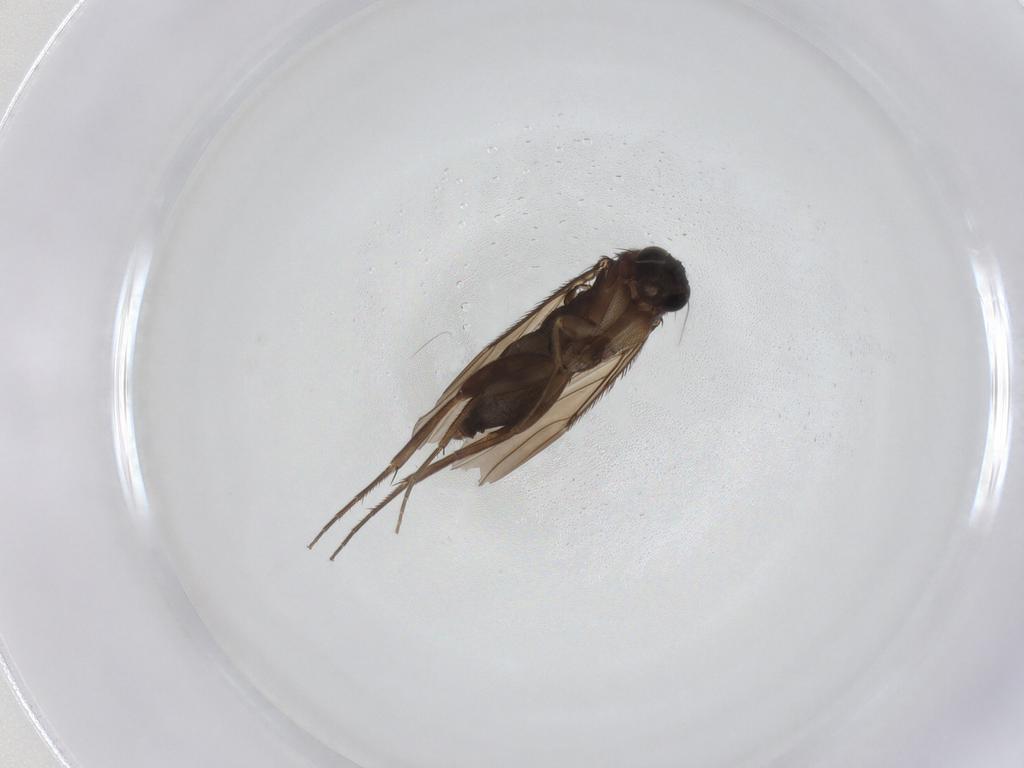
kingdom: Animalia
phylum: Arthropoda
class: Insecta
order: Diptera
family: Phoridae
